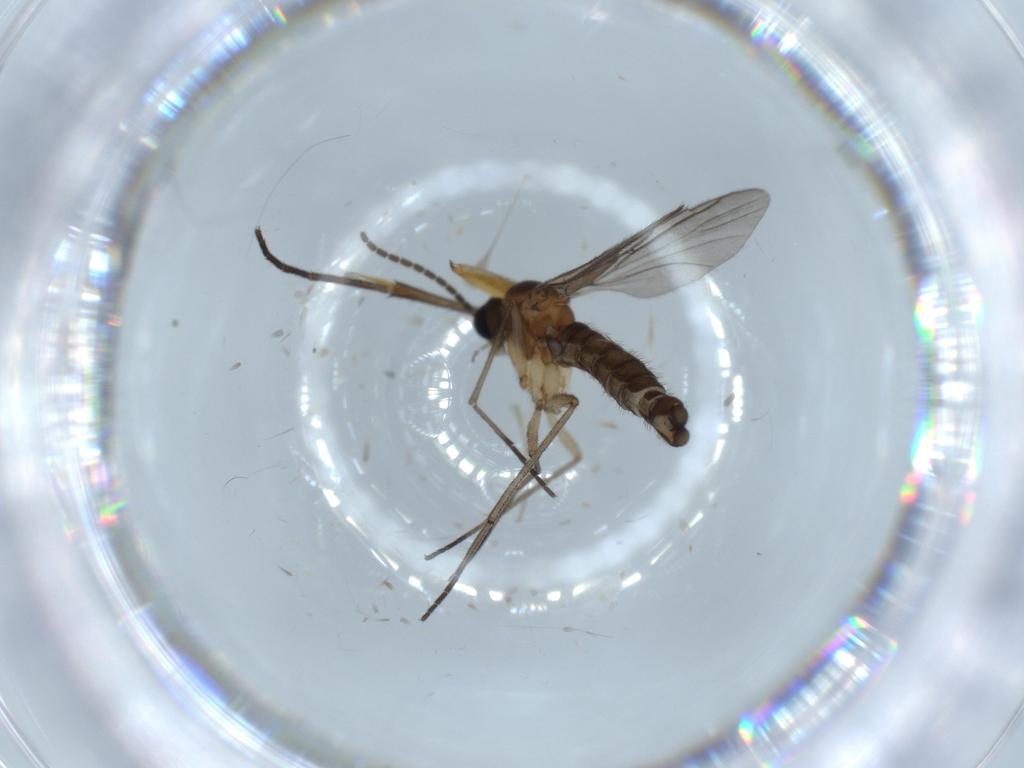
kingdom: Animalia
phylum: Arthropoda
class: Insecta
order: Diptera
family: Sciaridae
